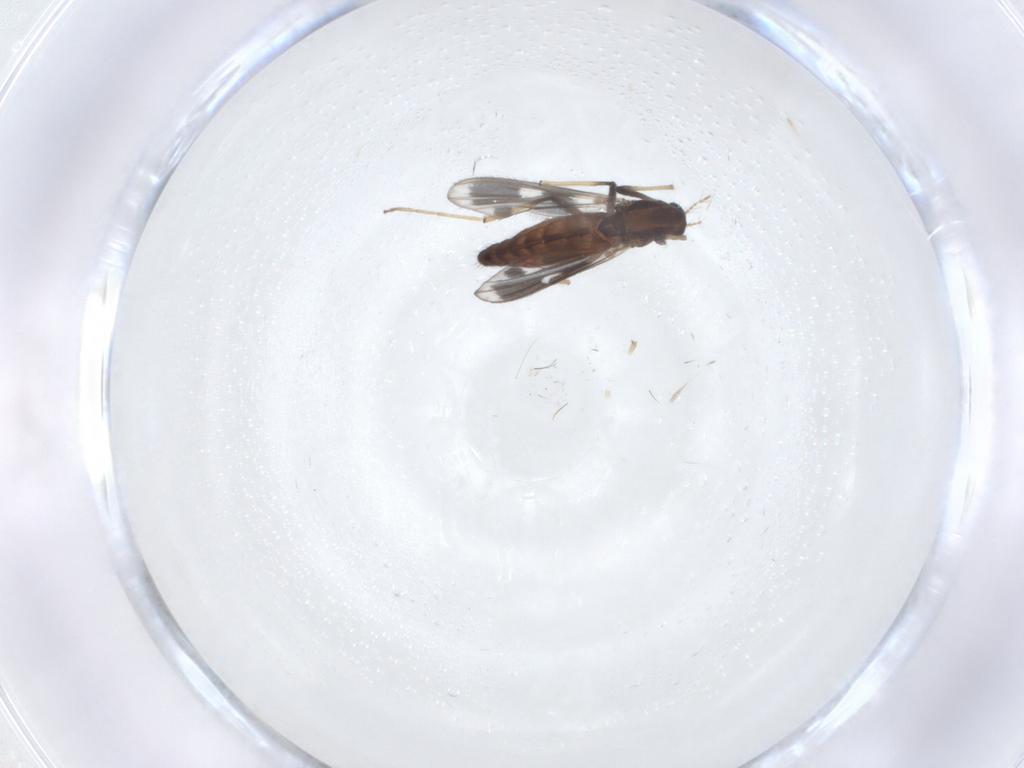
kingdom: Animalia
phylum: Arthropoda
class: Insecta
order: Diptera
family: Chironomidae
